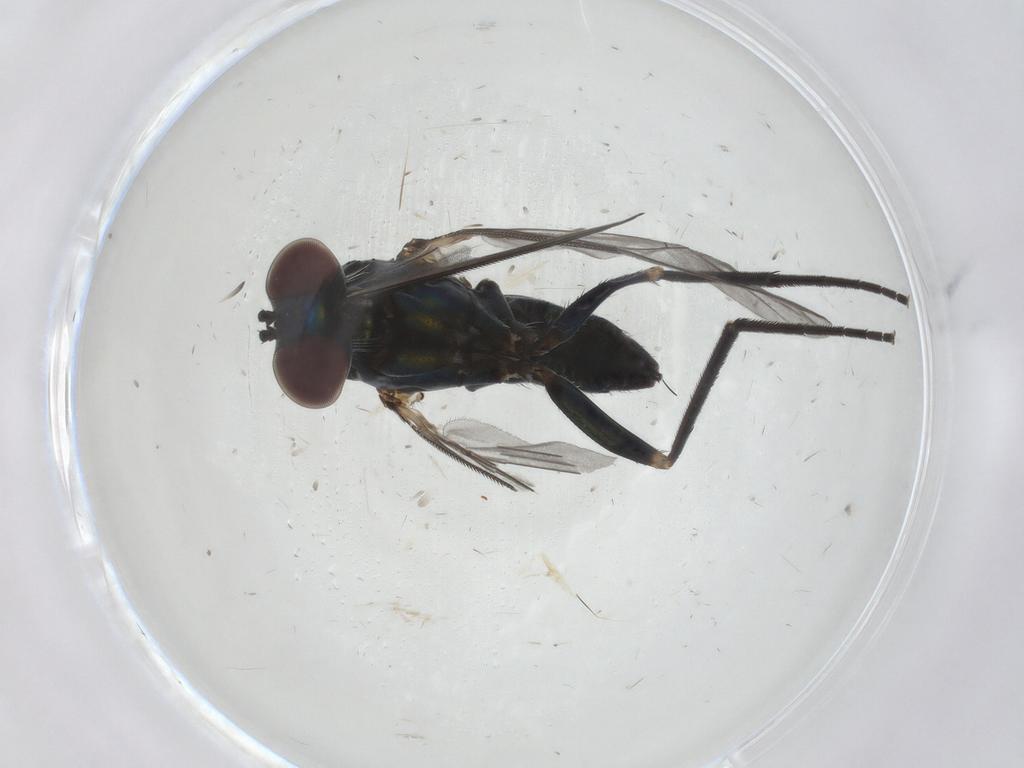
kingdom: Animalia
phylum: Arthropoda
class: Insecta
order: Diptera
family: Dolichopodidae
